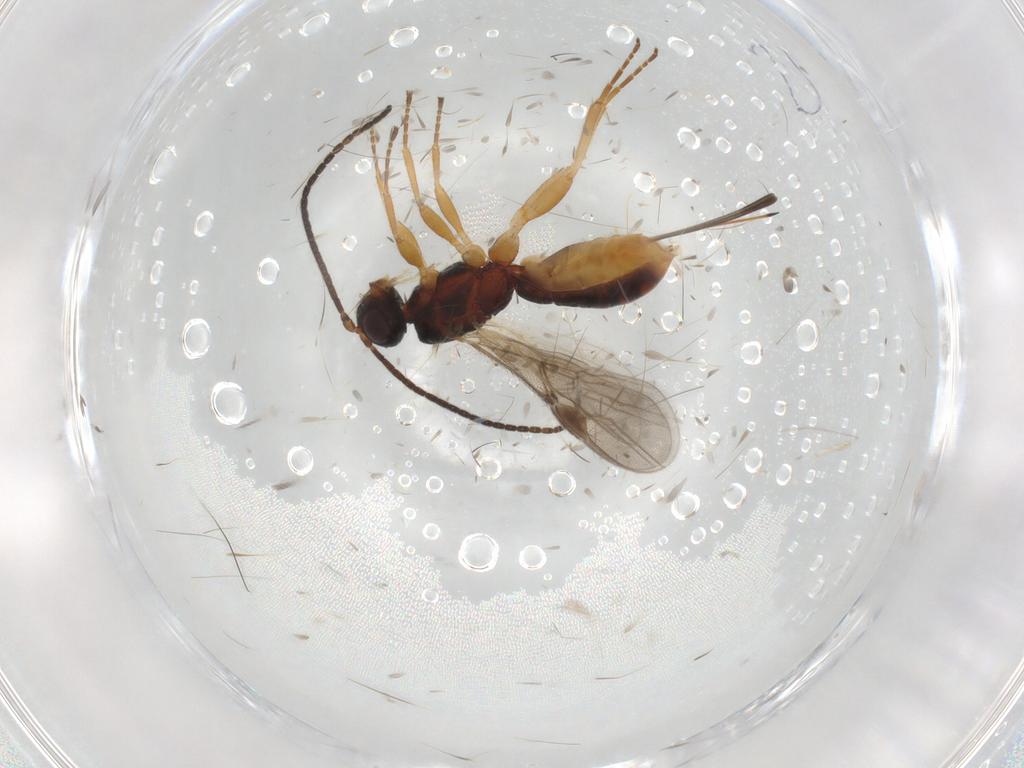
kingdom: Animalia
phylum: Arthropoda
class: Insecta
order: Hymenoptera
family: Braconidae
